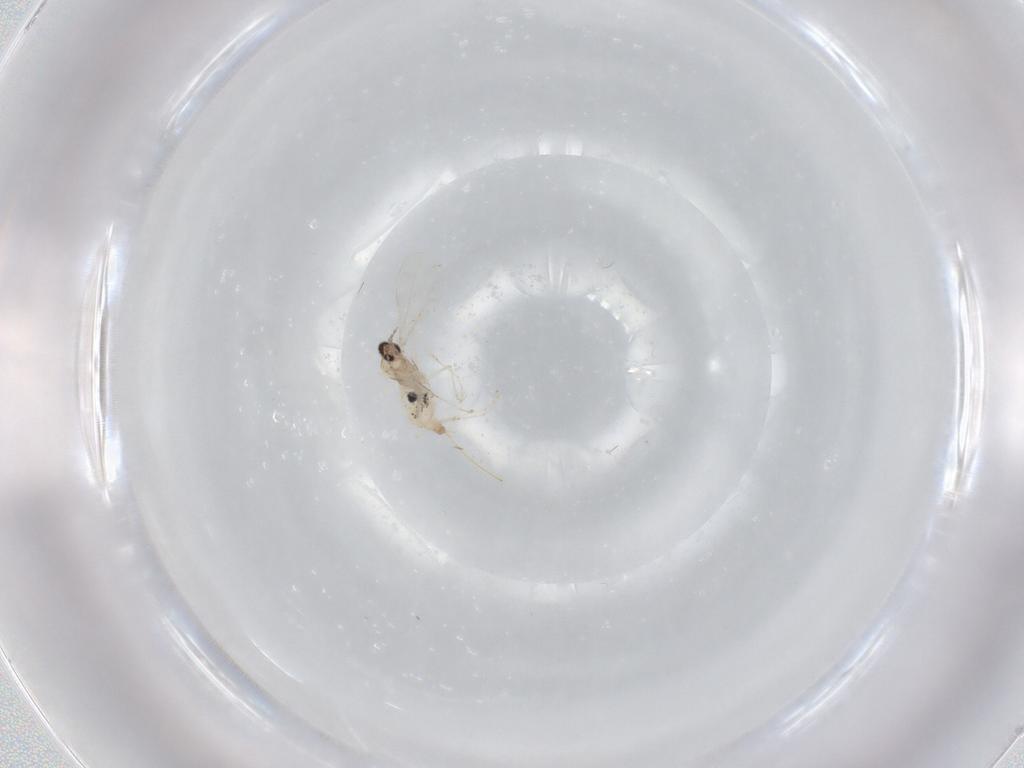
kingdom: Animalia
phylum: Arthropoda
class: Insecta
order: Diptera
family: Cecidomyiidae
